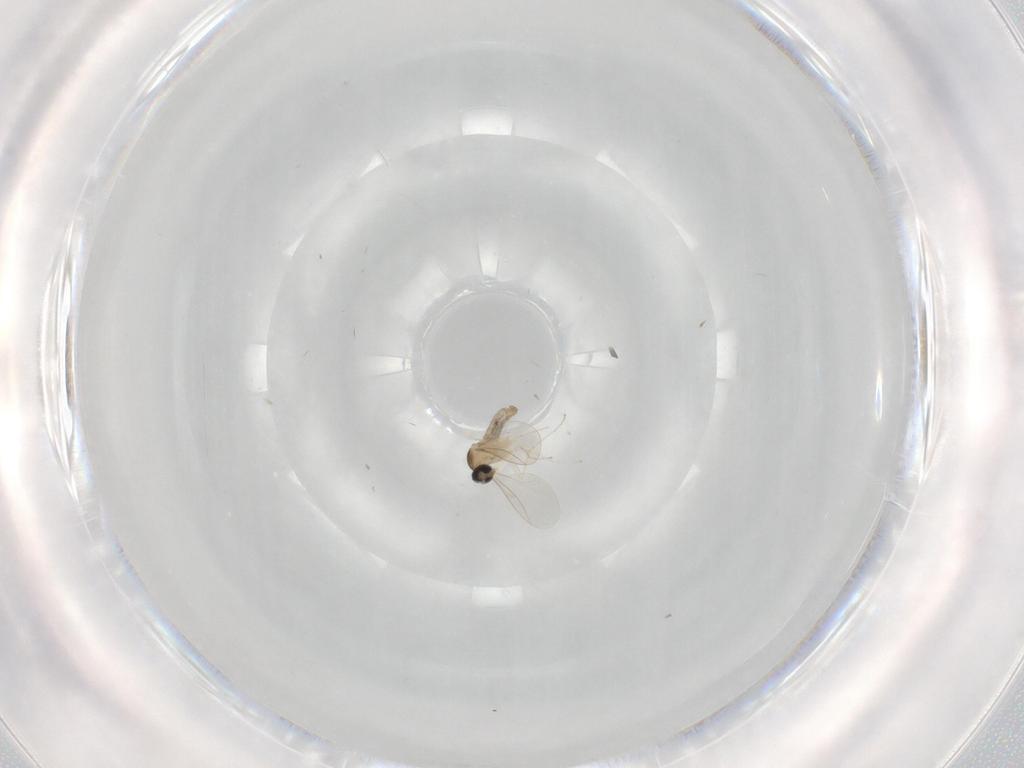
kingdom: Animalia
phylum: Arthropoda
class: Insecta
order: Diptera
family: Cecidomyiidae
